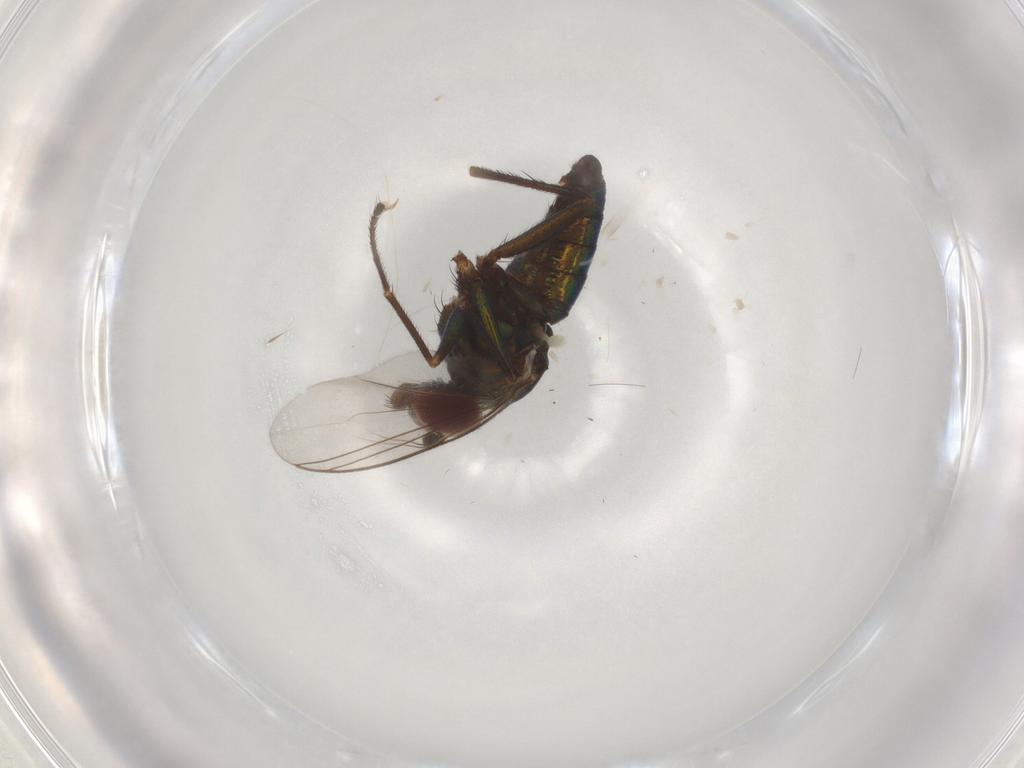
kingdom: Animalia
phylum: Arthropoda
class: Insecta
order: Diptera
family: Dolichopodidae
